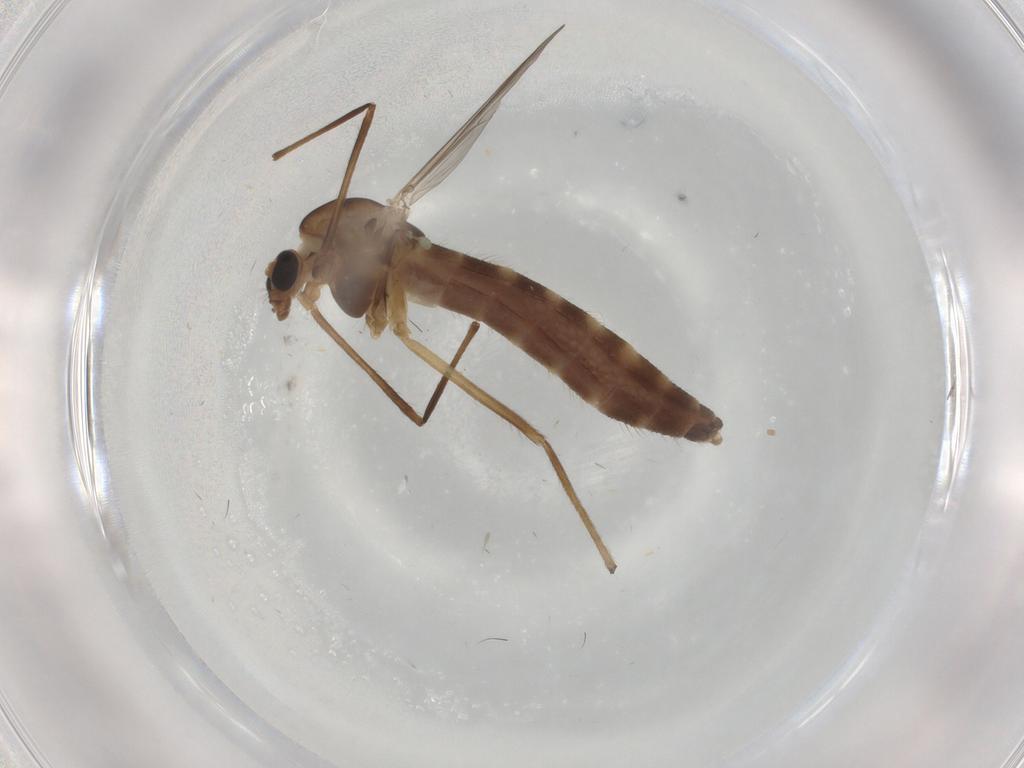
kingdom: Animalia
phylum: Arthropoda
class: Insecta
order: Diptera
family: Chironomidae
